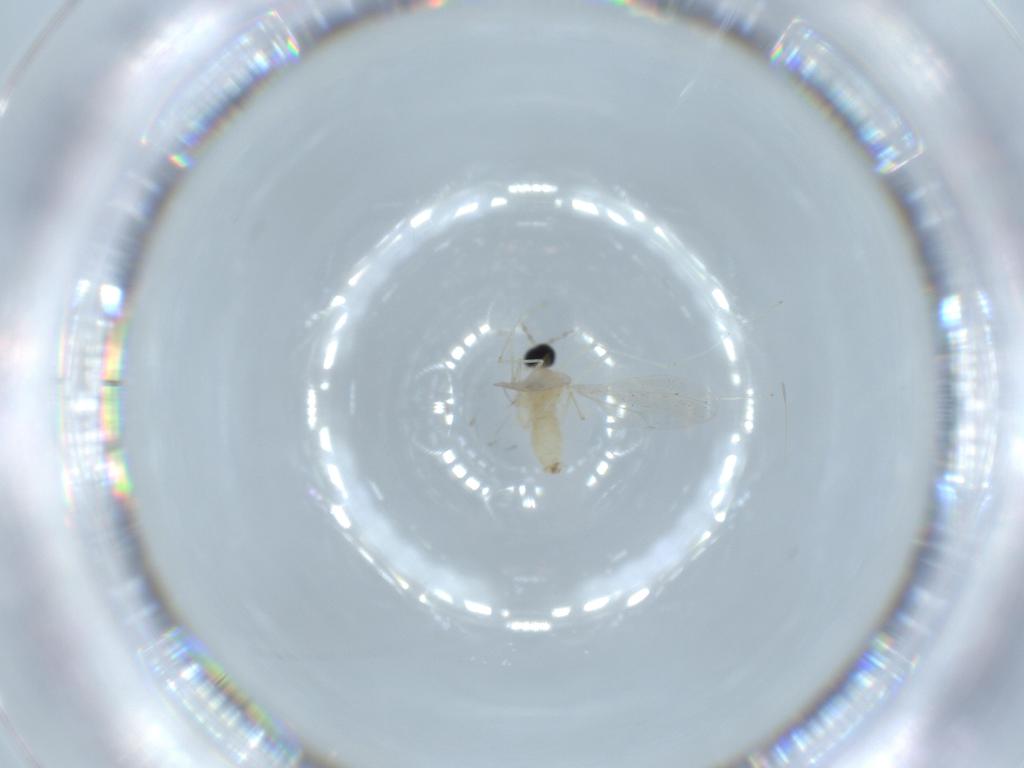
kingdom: Animalia
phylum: Arthropoda
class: Insecta
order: Diptera
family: Cecidomyiidae
